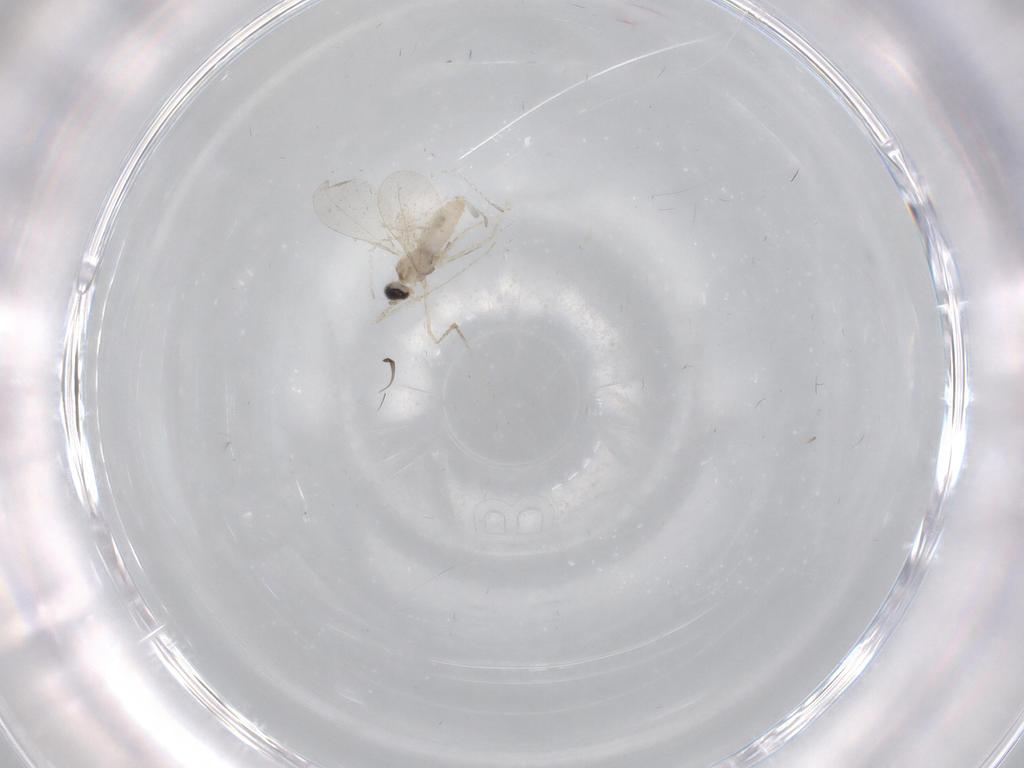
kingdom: Animalia
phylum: Arthropoda
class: Insecta
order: Diptera
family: Cecidomyiidae
